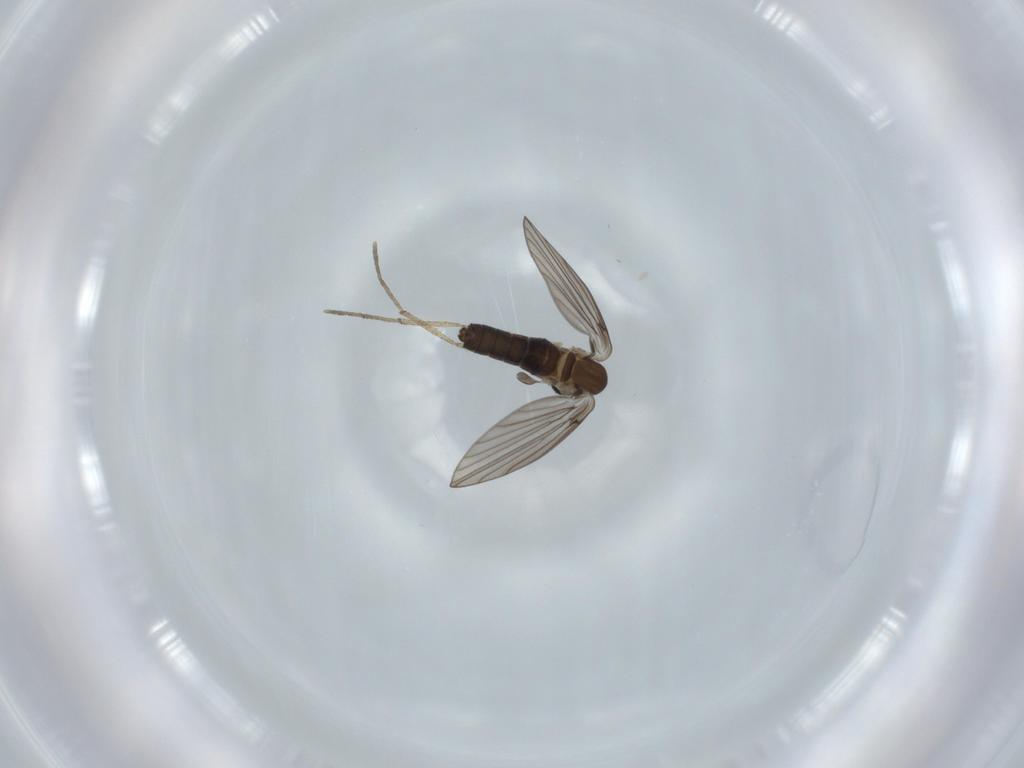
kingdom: Animalia
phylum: Arthropoda
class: Insecta
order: Diptera
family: Psychodidae
